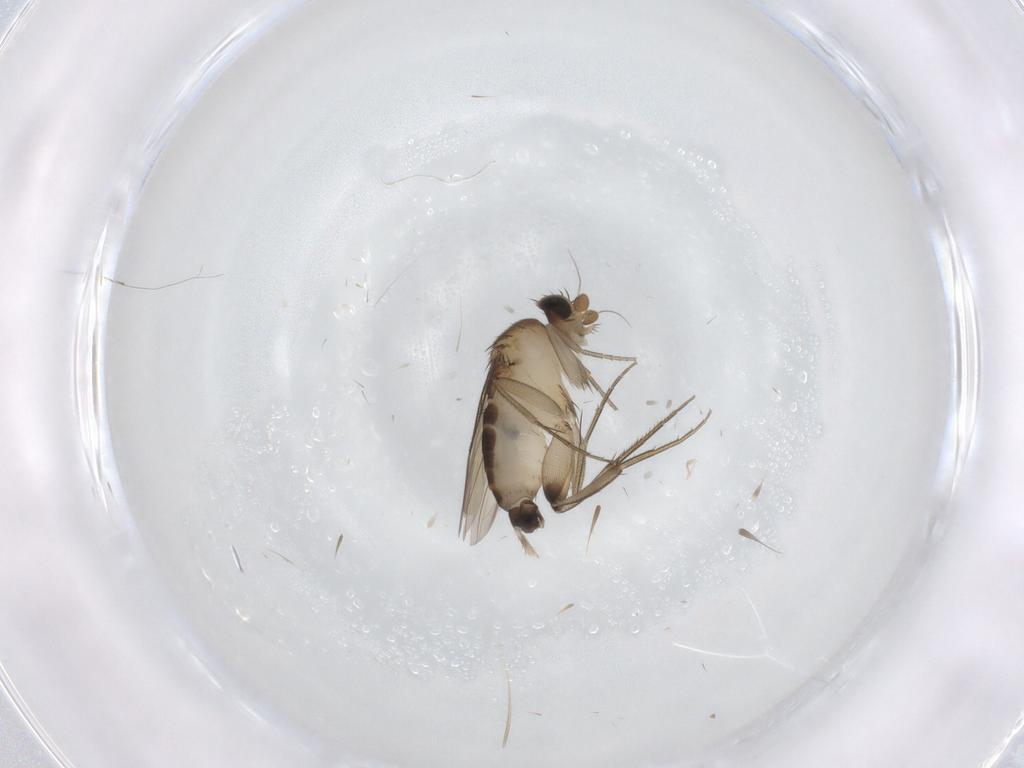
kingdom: Animalia
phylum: Arthropoda
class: Insecta
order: Diptera
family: Phoridae
